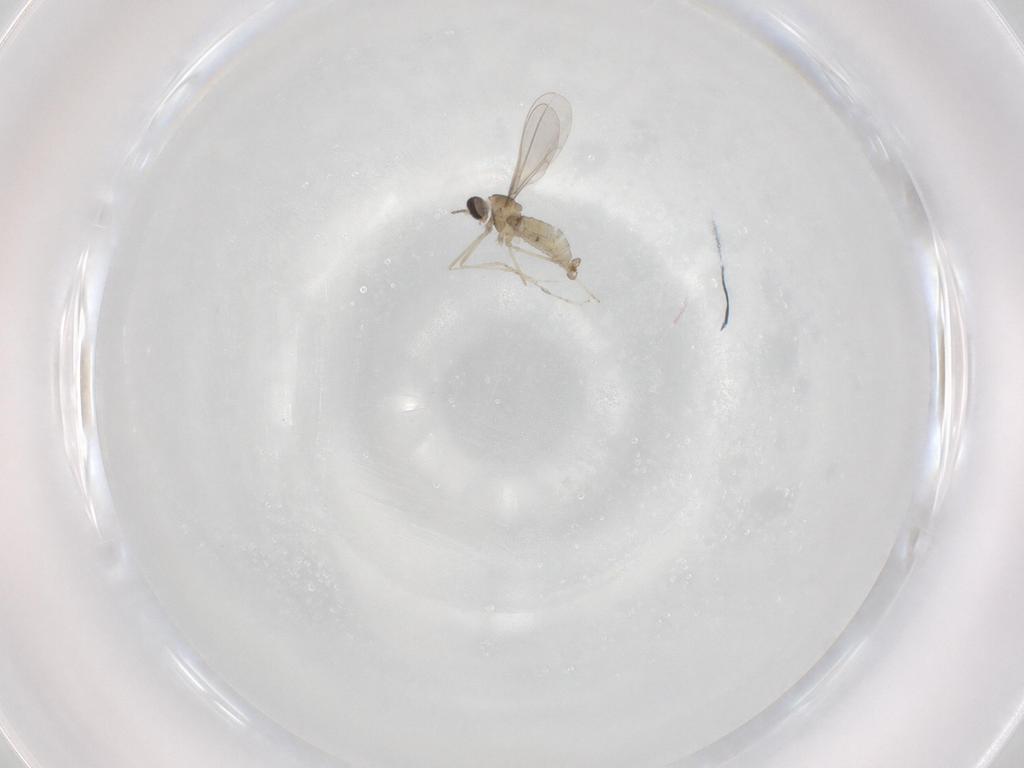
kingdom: Animalia
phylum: Arthropoda
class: Insecta
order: Diptera
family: Cecidomyiidae
